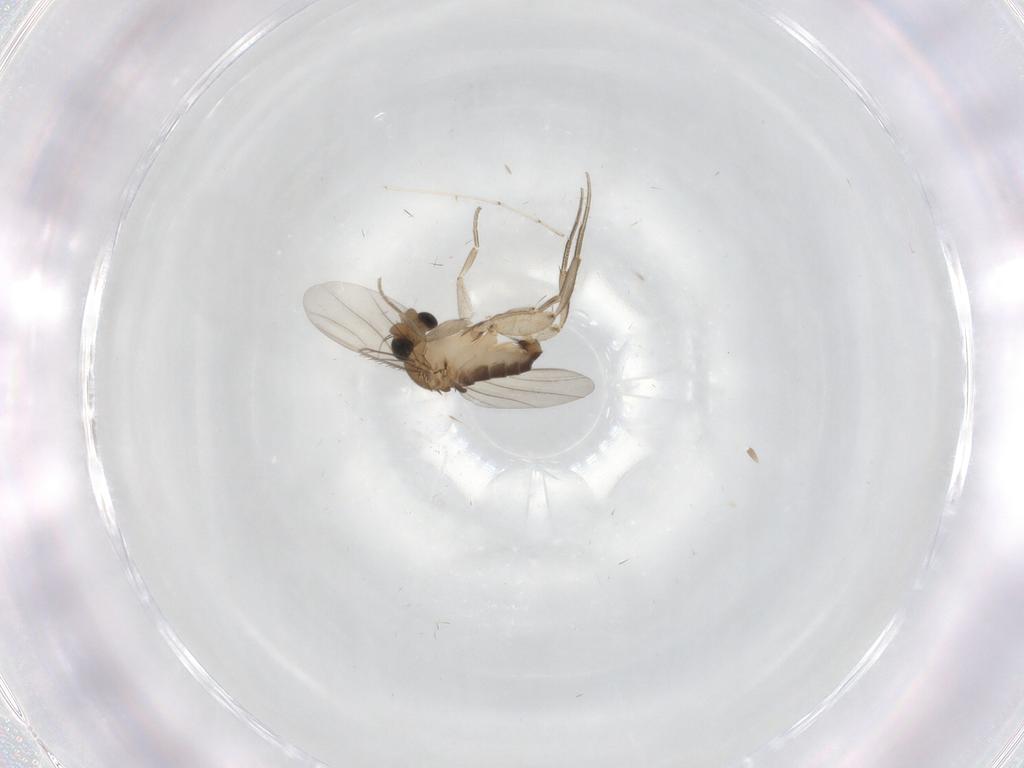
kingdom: Animalia
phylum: Arthropoda
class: Insecta
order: Diptera
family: Phoridae
